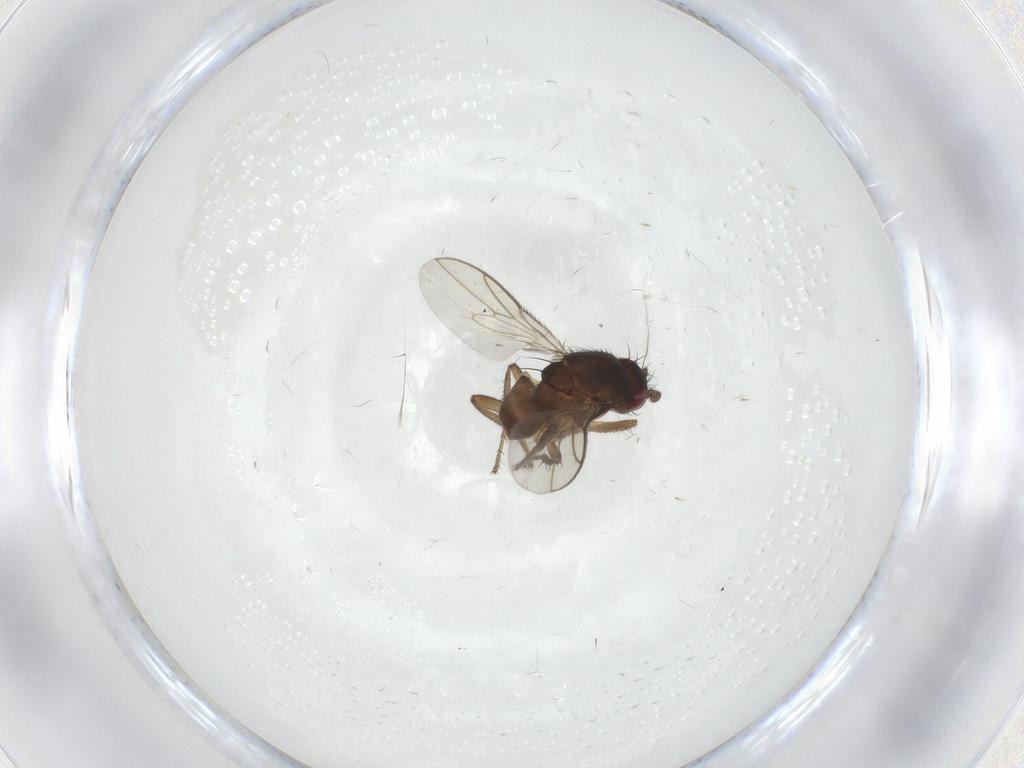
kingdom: Animalia
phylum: Arthropoda
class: Insecta
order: Diptera
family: Sphaeroceridae
